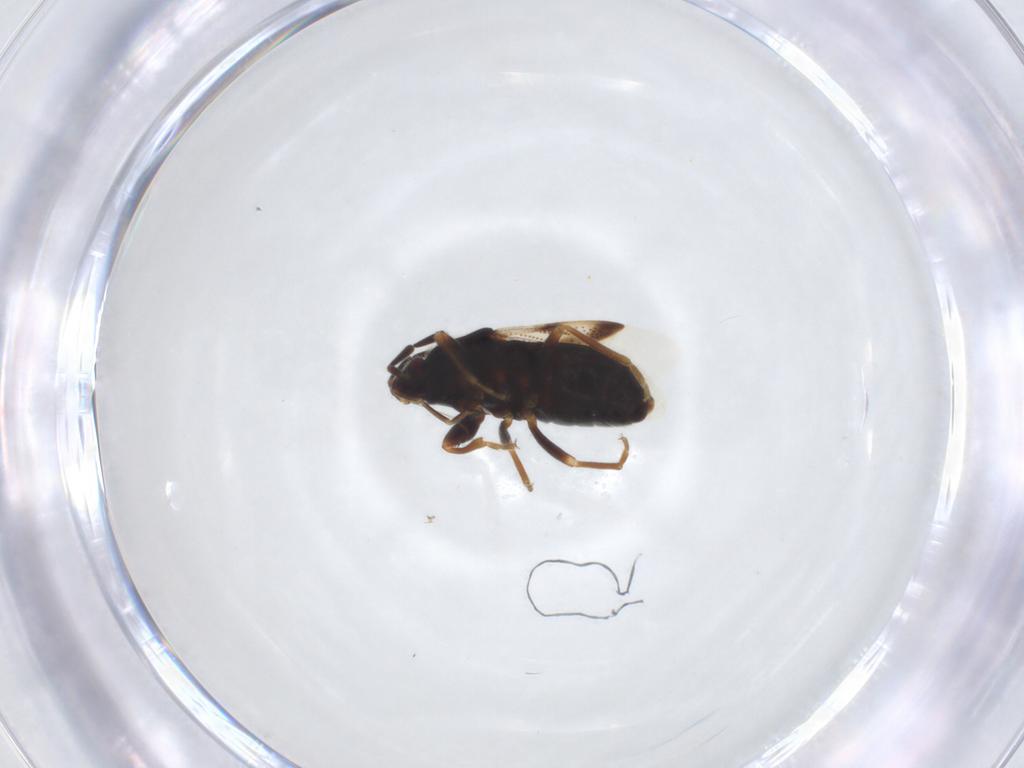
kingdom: Animalia
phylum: Arthropoda
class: Insecta
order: Hemiptera
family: Rhyparochromidae
